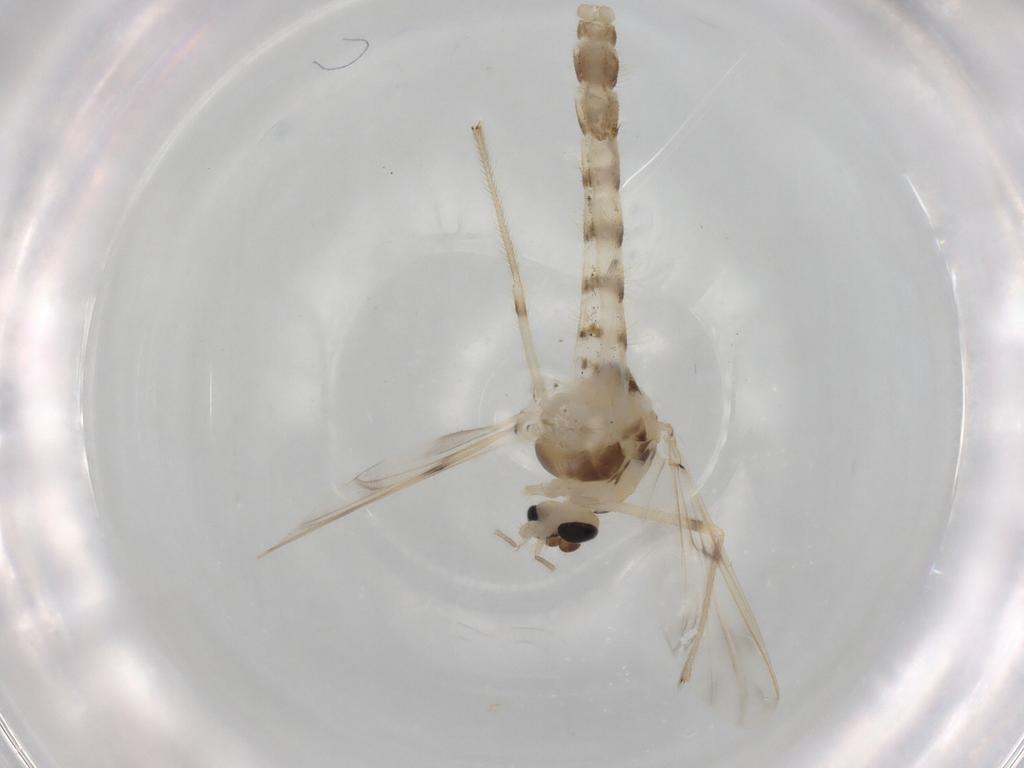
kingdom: Animalia
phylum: Arthropoda
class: Insecta
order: Diptera
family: Chironomidae
